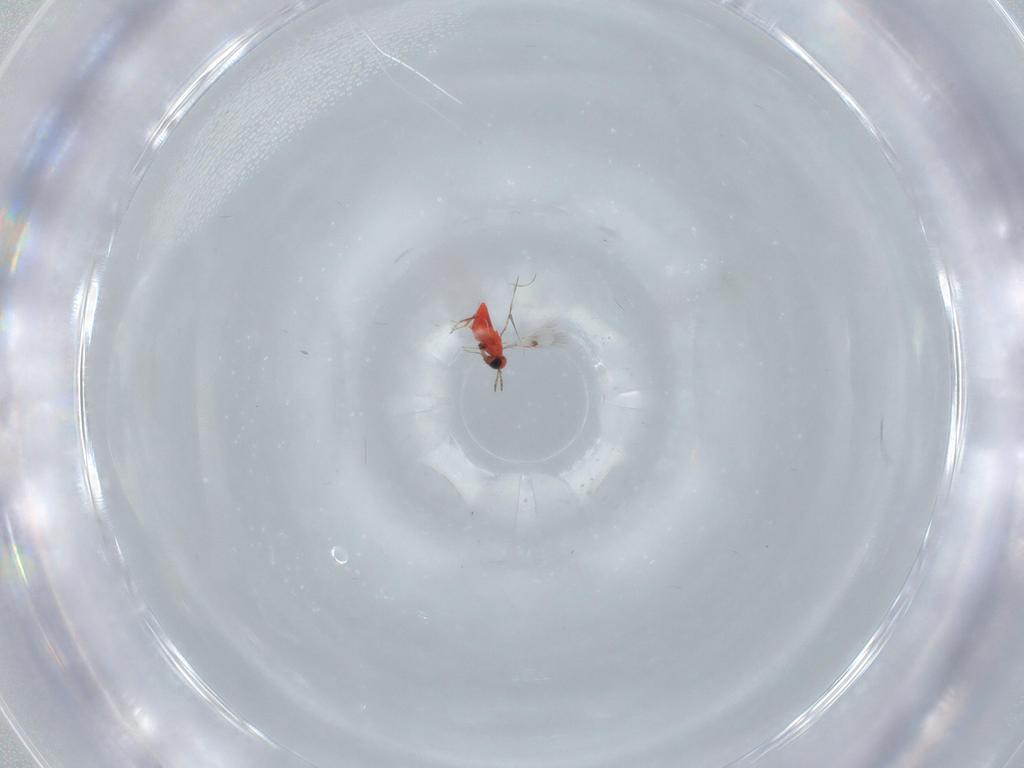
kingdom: Animalia
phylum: Arthropoda
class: Insecta
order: Hymenoptera
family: Trichogrammatidae
